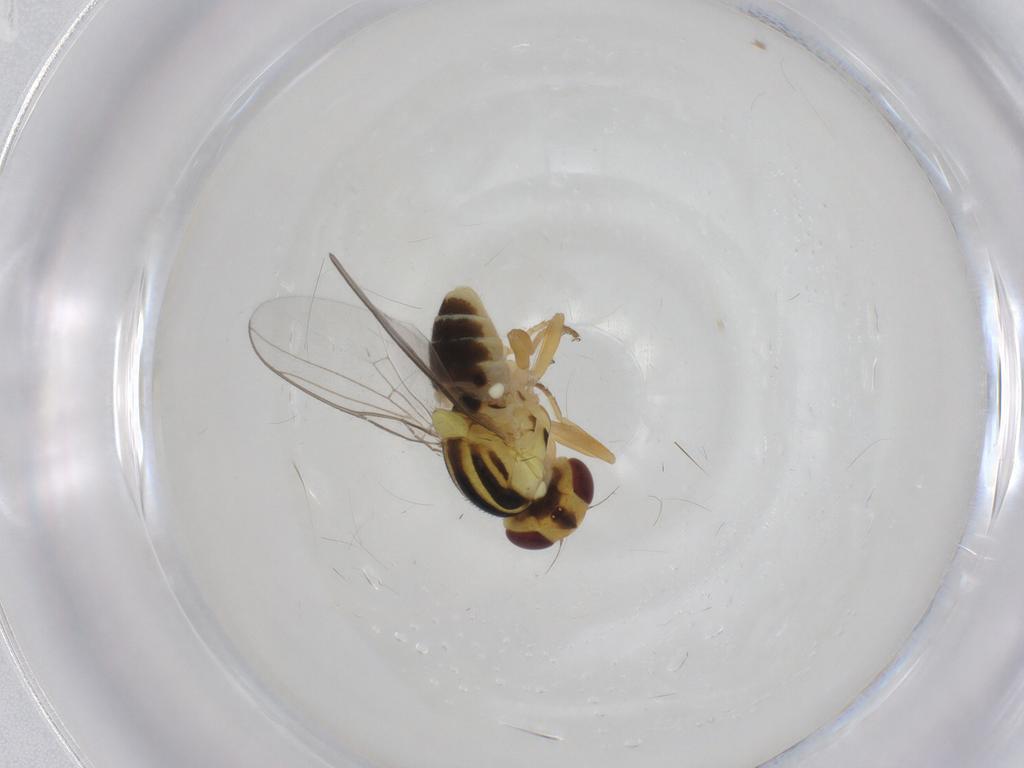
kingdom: Animalia
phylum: Arthropoda
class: Insecta
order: Diptera
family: Chloropidae
